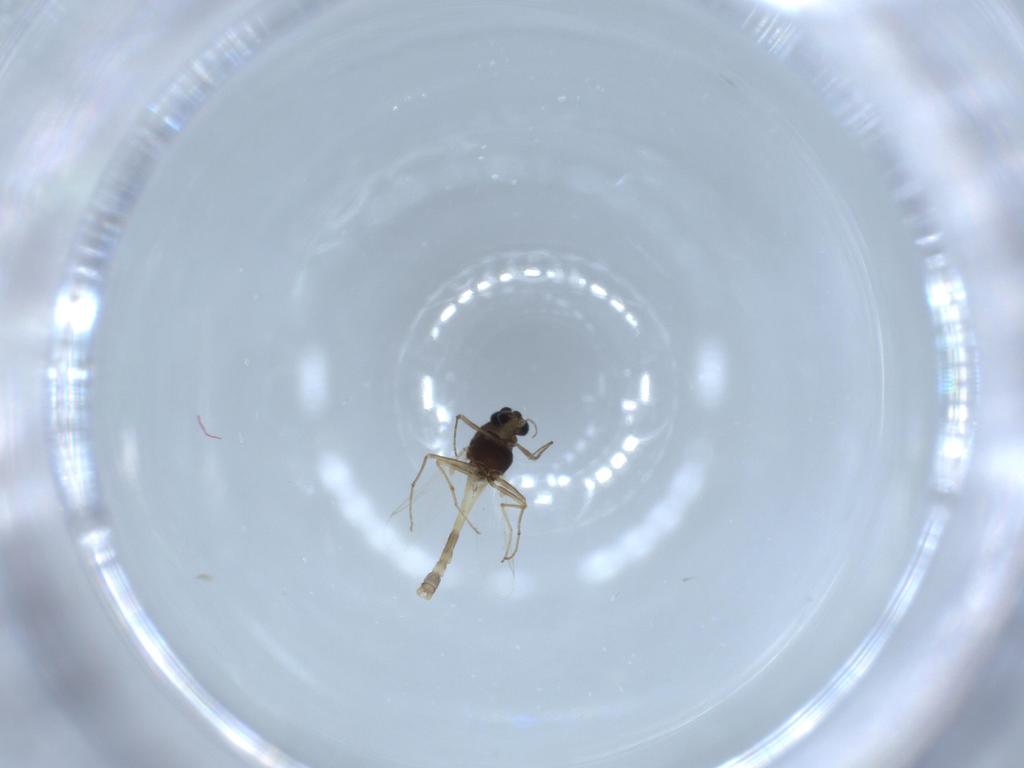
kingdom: Animalia
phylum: Arthropoda
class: Insecta
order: Diptera
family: Chironomidae
